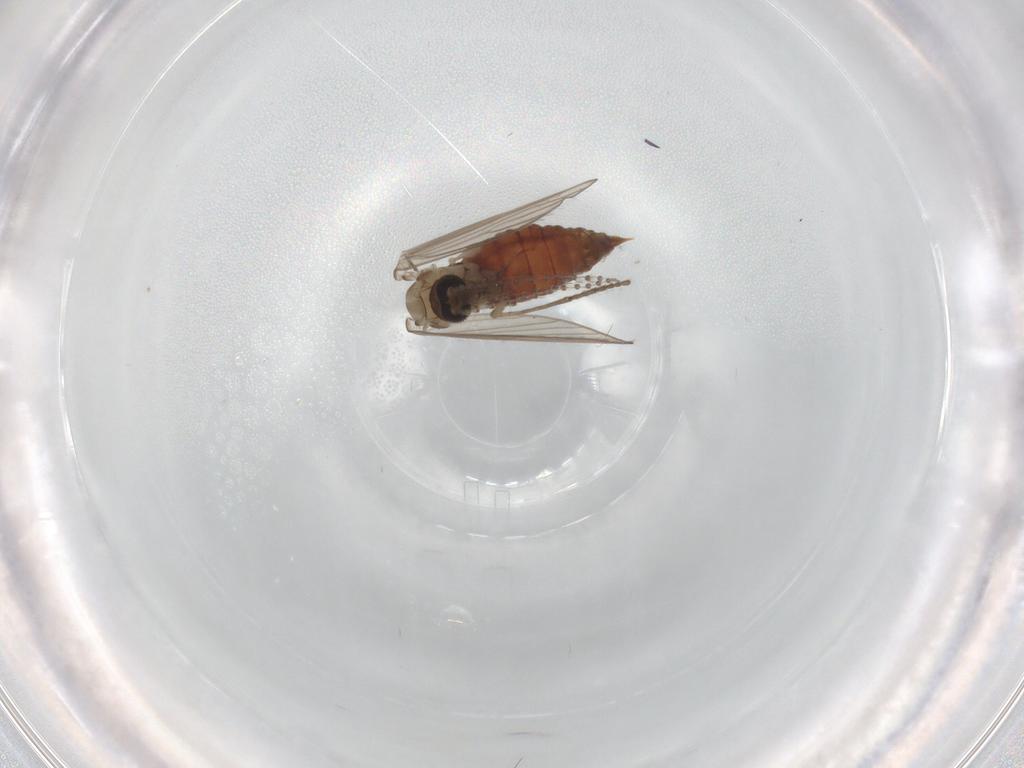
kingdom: Animalia
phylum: Arthropoda
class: Insecta
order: Diptera
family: Psychodidae
